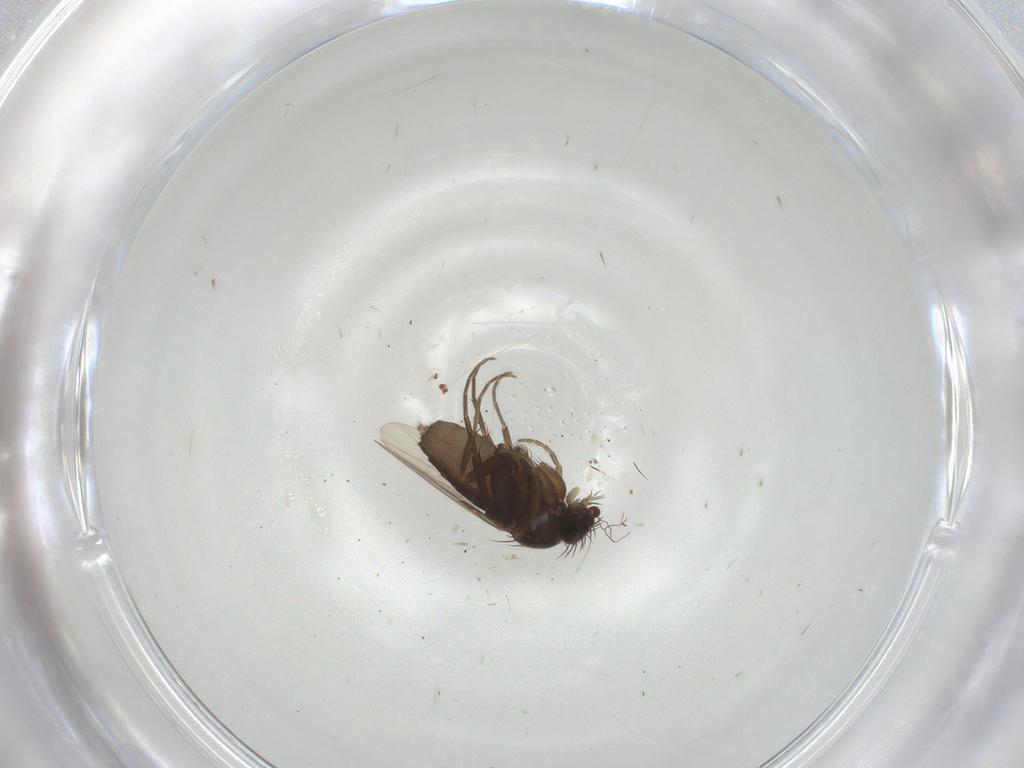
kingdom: Animalia
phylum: Arthropoda
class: Insecta
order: Diptera
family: Phoridae
